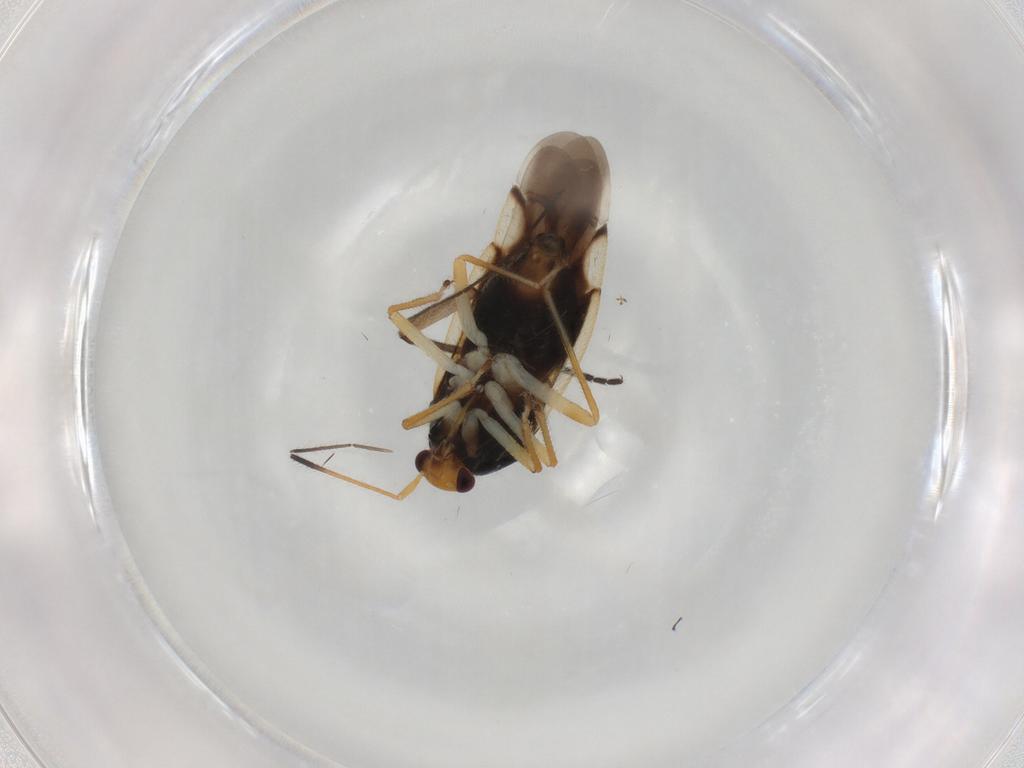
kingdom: Animalia
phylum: Arthropoda
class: Insecta
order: Hemiptera
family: Miridae
